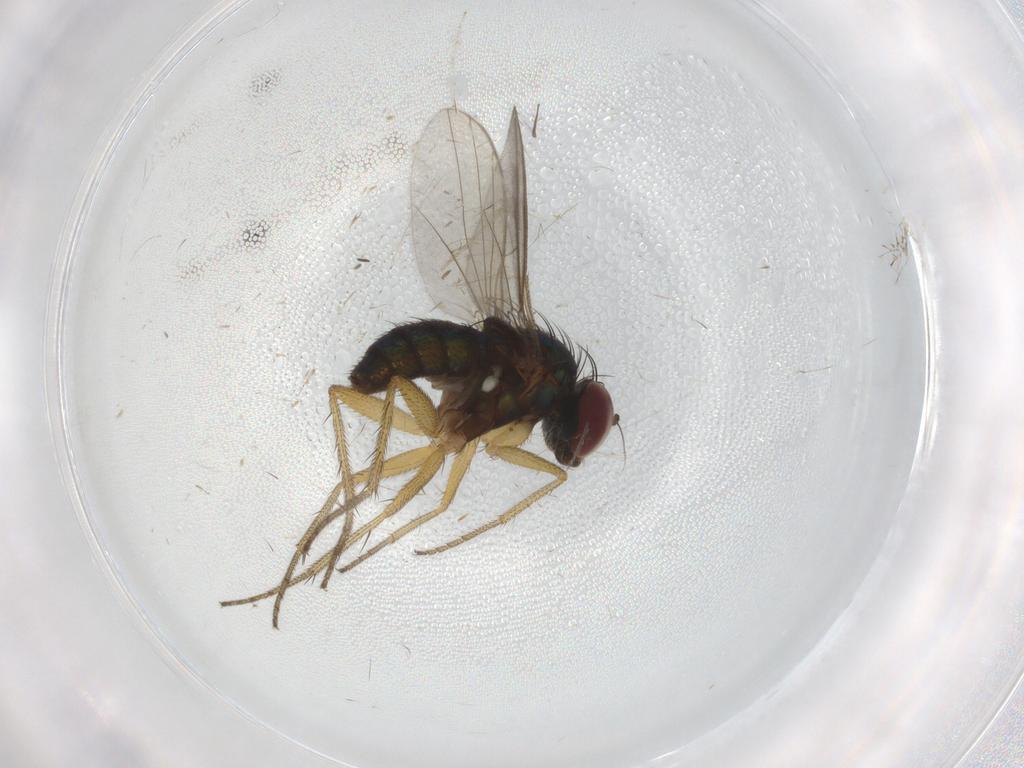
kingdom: Animalia
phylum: Arthropoda
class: Insecta
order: Diptera
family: Dolichopodidae
